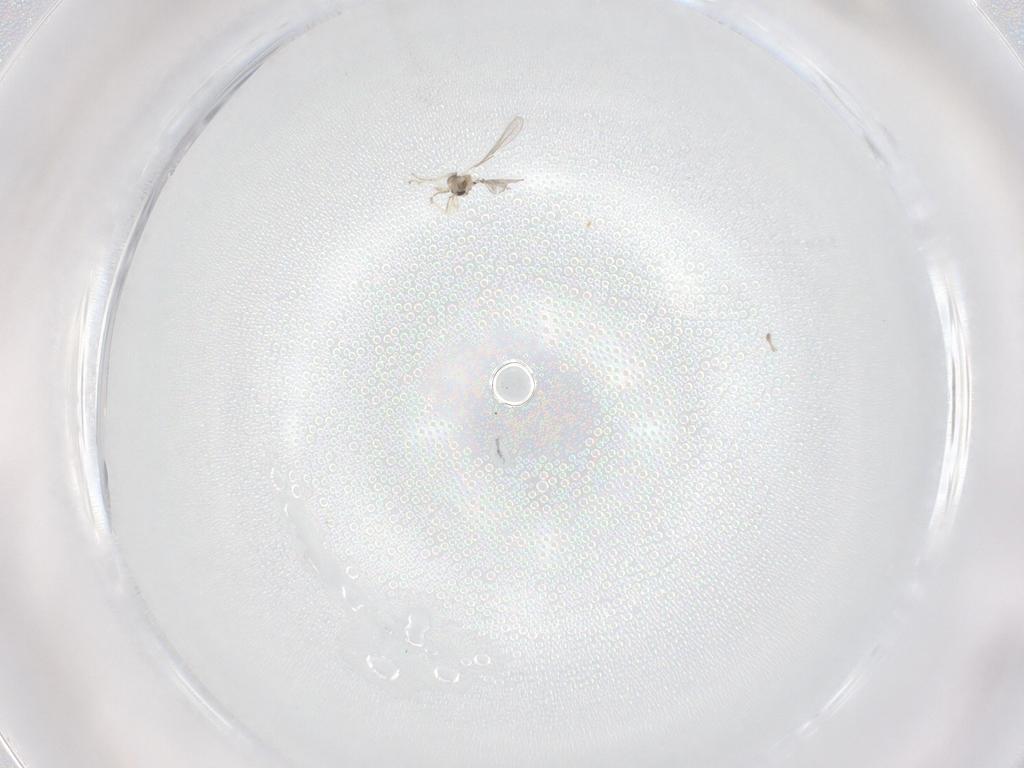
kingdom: Animalia
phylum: Arthropoda
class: Insecta
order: Diptera
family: Cecidomyiidae
